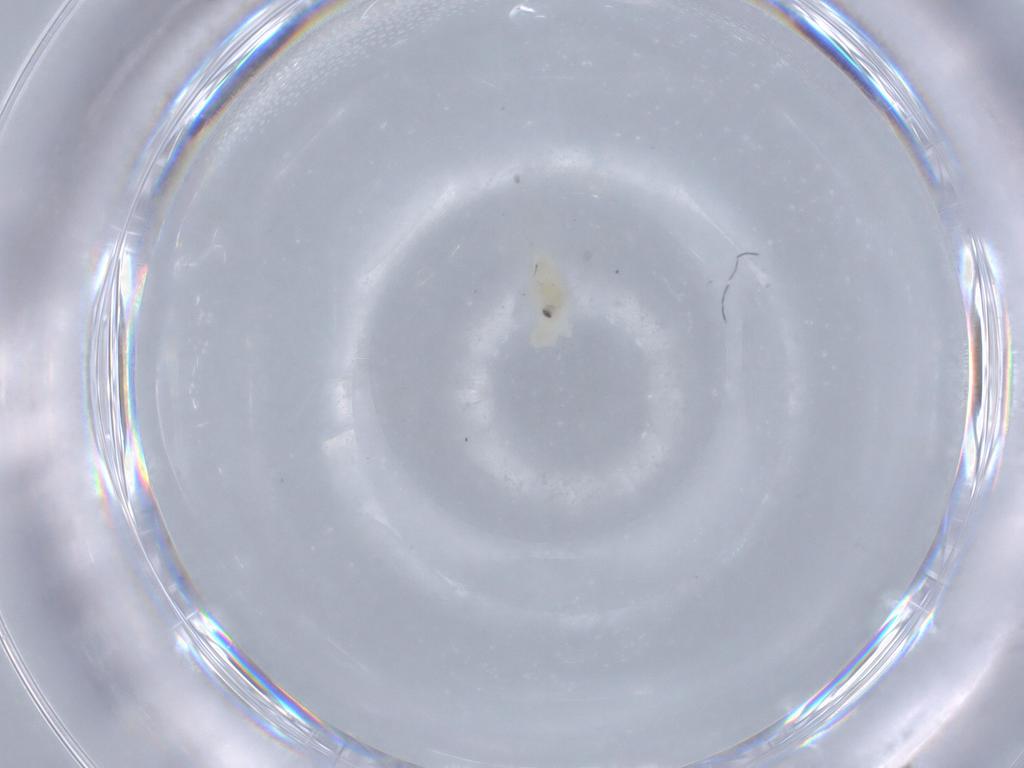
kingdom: Animalia
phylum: Arthropoda
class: Insecta
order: Hemiptera
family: Aleyrodidae
